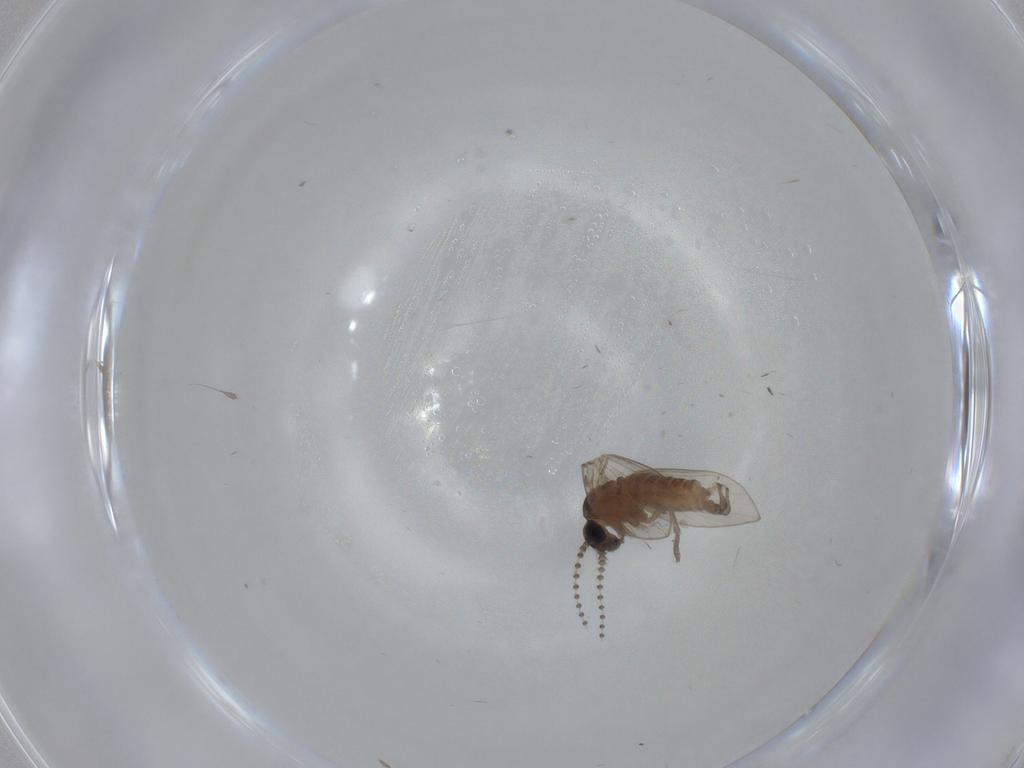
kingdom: Animalia
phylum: Arthropoda
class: Insecta
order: Diptera
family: Psychodidae
